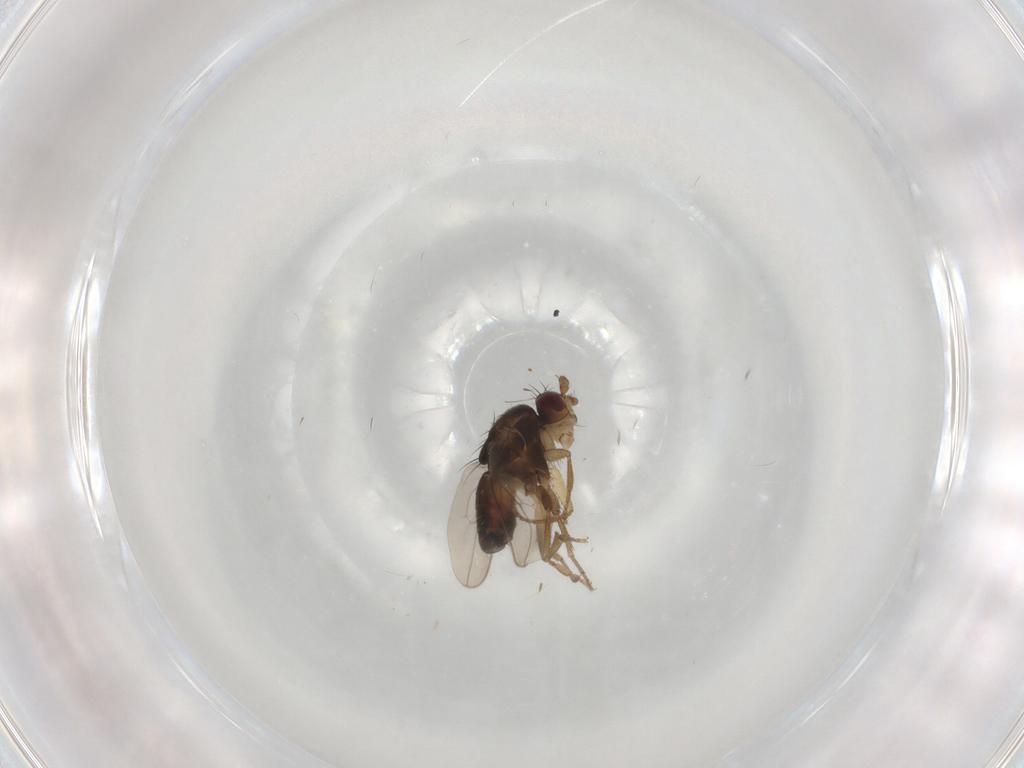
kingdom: Animalia
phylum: Arthropoda
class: Insecta
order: Diptera
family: Sphaeroceridae
